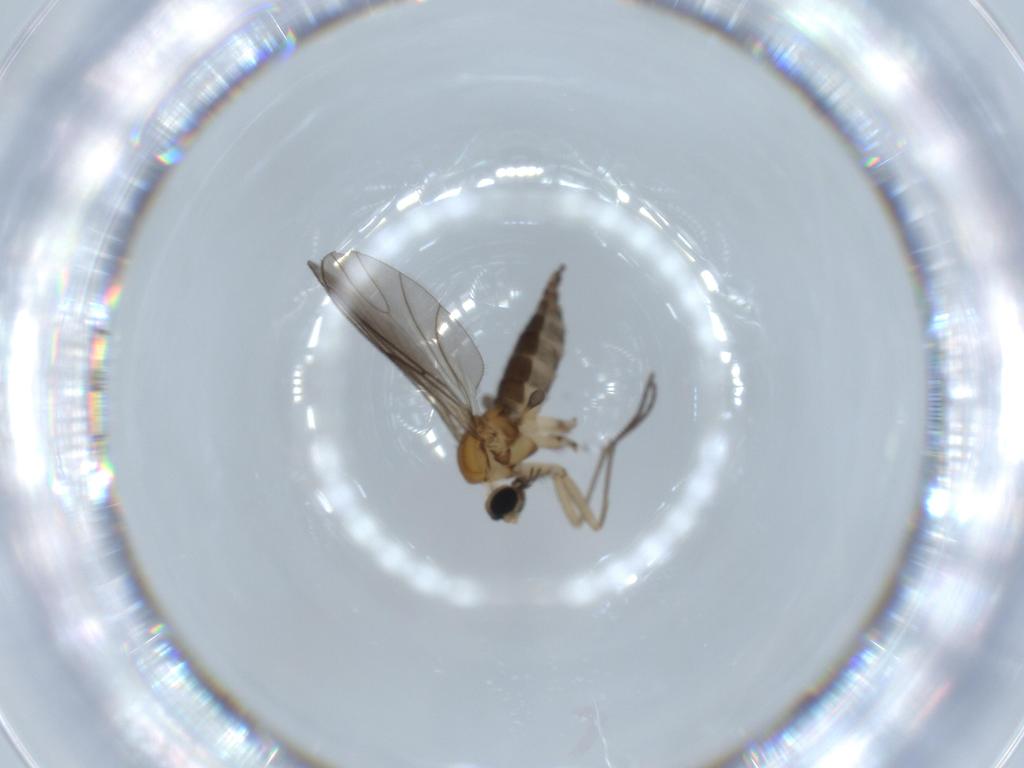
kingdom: Animalia
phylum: Arthropoda
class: Insecta
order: Diptera
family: Sciaridae
